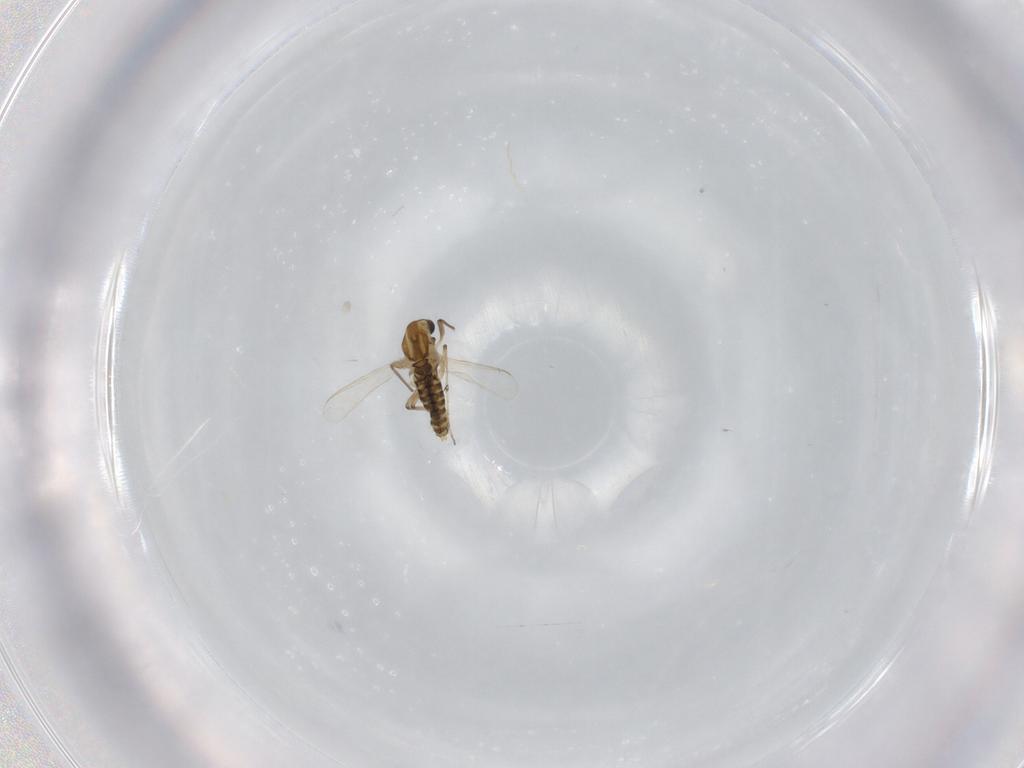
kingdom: Animalia
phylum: Arthropoda
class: Insecta
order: Diptera
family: Chironomidae
